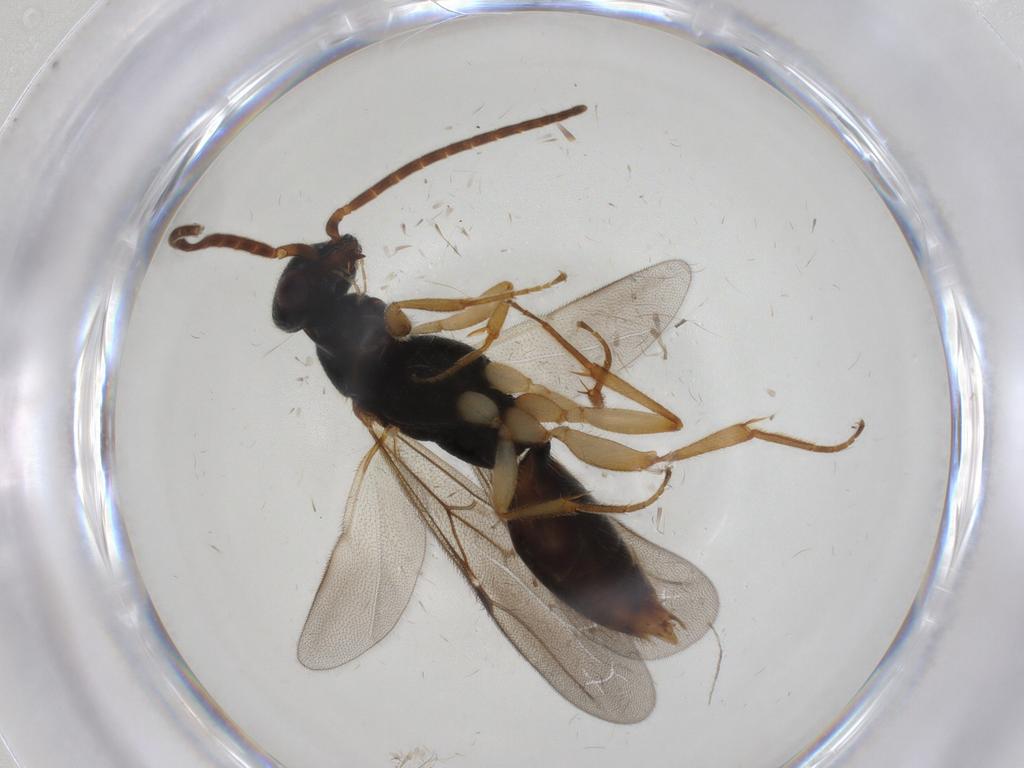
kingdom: Animalia
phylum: Arthropoda
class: Insecta
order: Hymenoptera
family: Bethylidae
